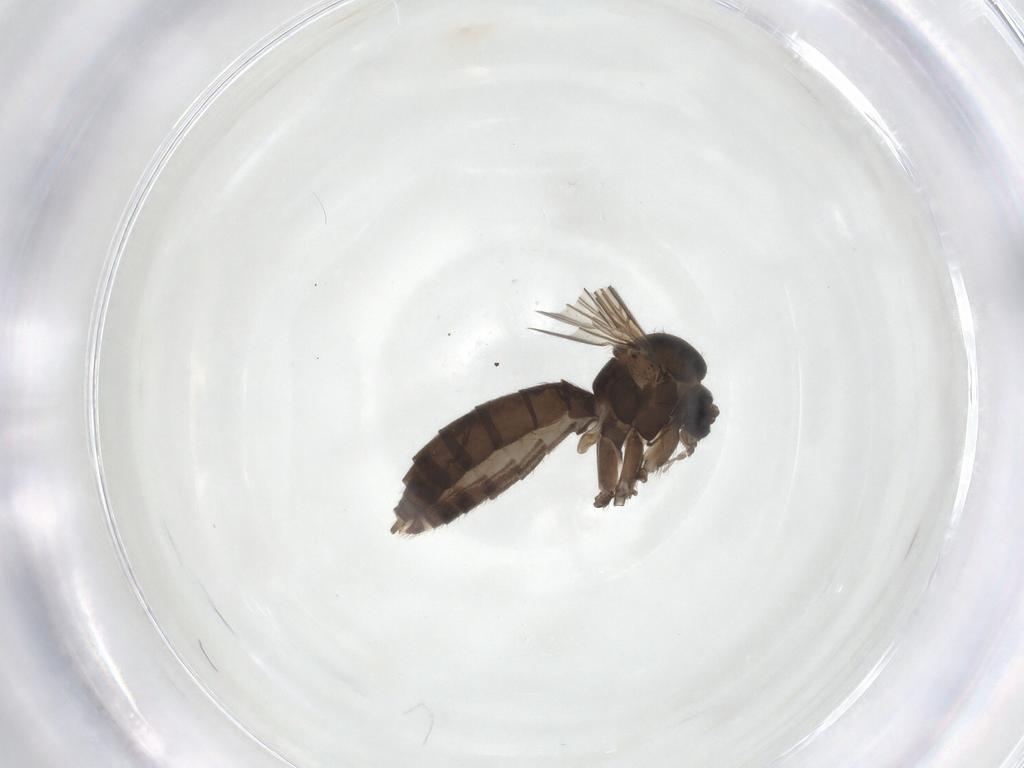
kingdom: Animalia
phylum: Arthropoda
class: Insecta
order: Diptera
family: Mycetophilidae
